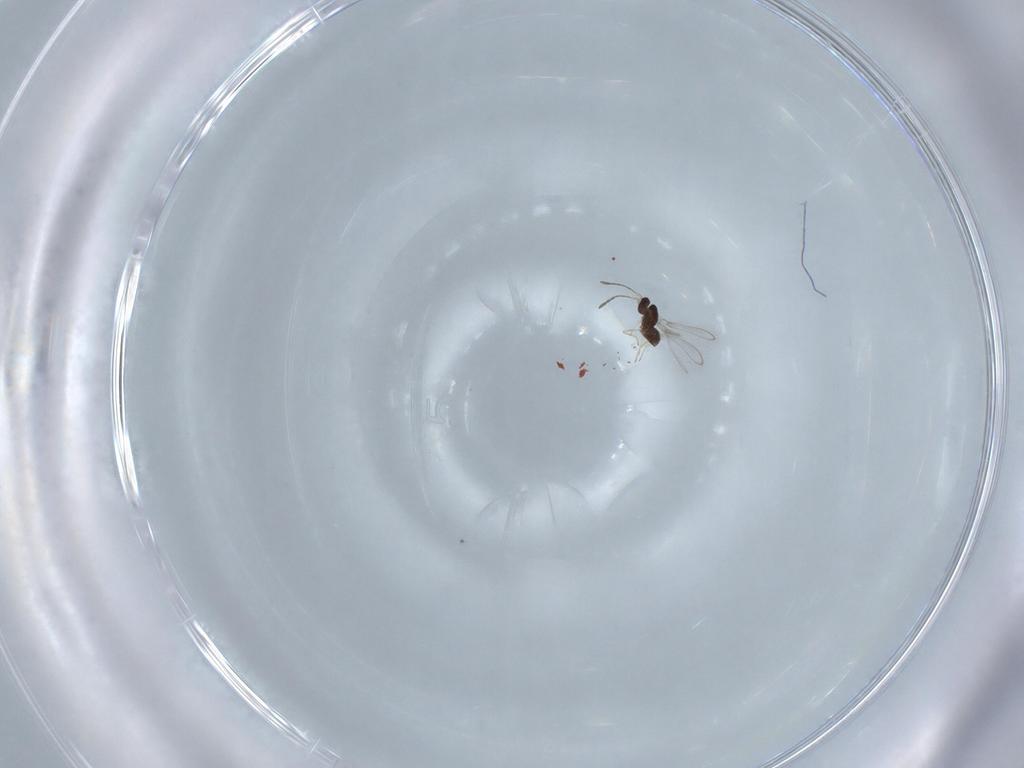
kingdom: Animalia
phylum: Arthropoda
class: Insecta
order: Hymenoptera
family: Mymaridae
